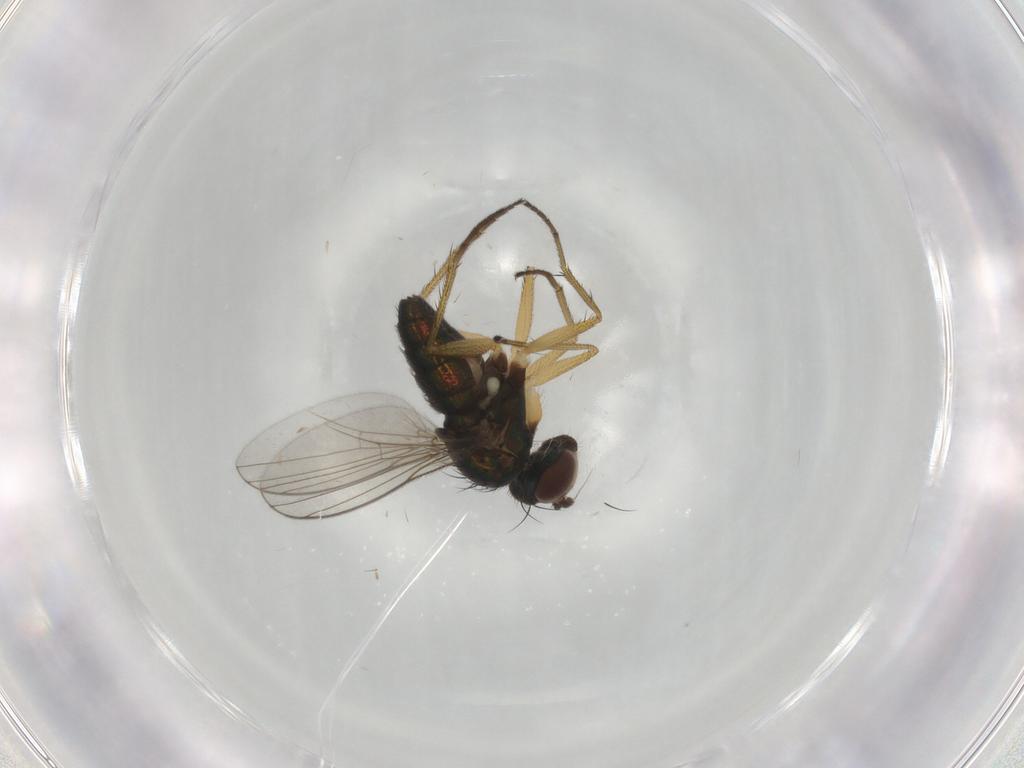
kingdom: Animalia
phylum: Arthropoda
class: Insecta
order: Diptera
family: Dolichopodidae
